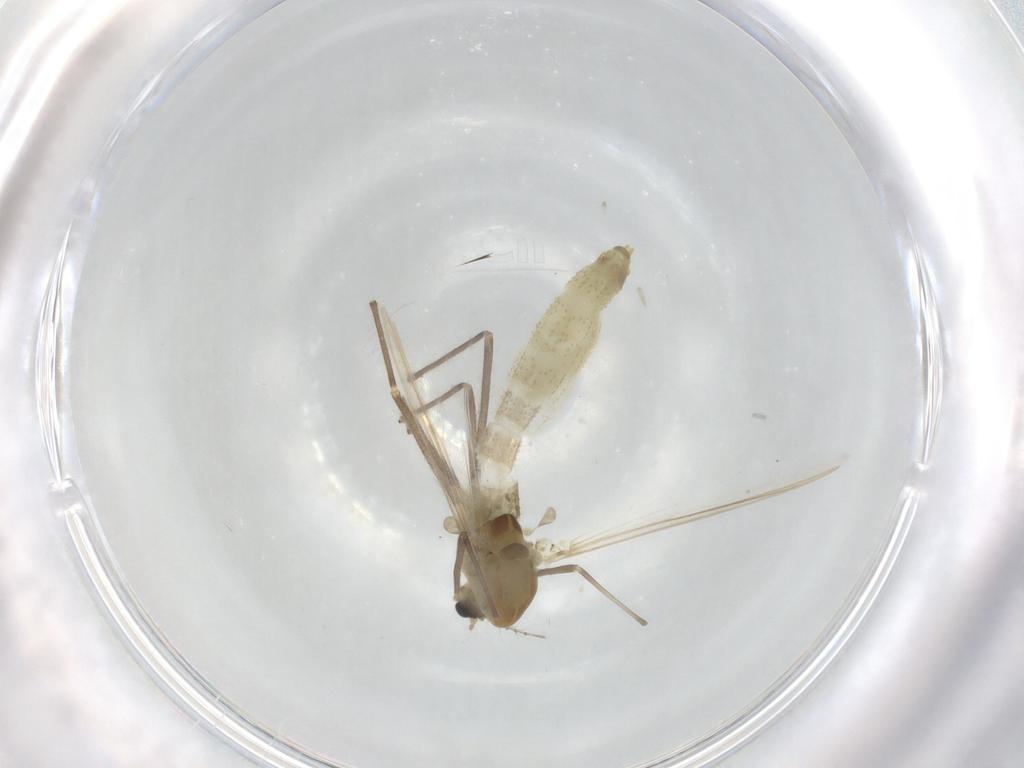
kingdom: Animalia
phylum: Arthropoda
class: Insecta
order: Diptera
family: Chironomidae
